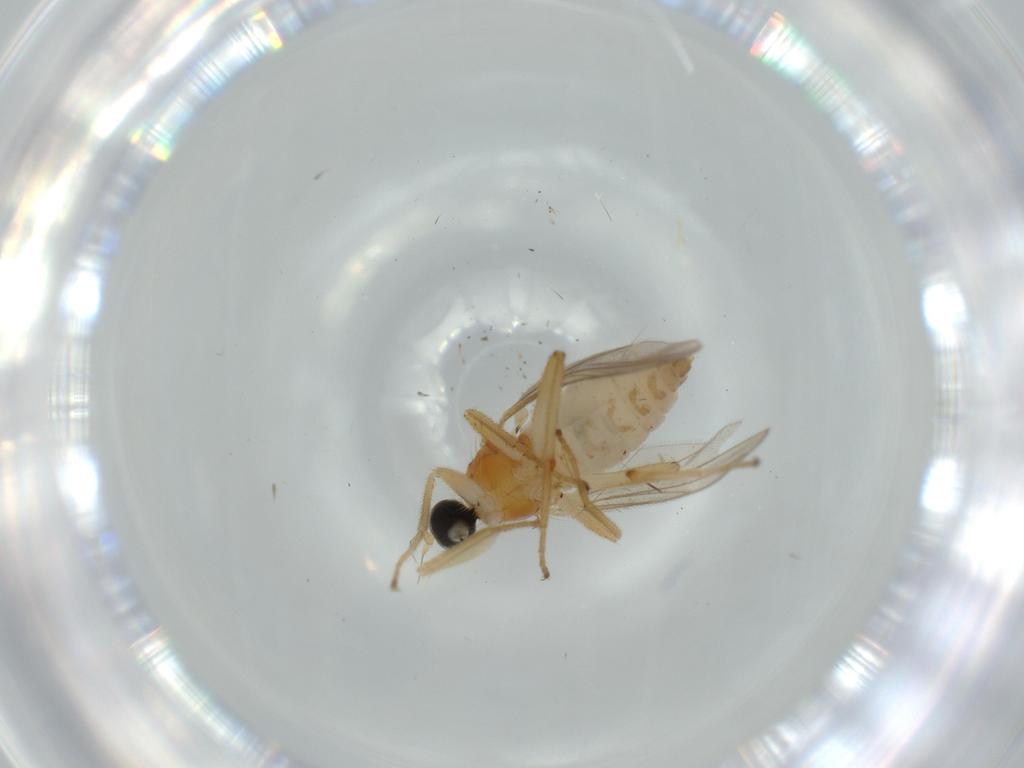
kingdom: Animalia
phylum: Arthropoda
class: Insecta
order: Diptera
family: Hybotidae
